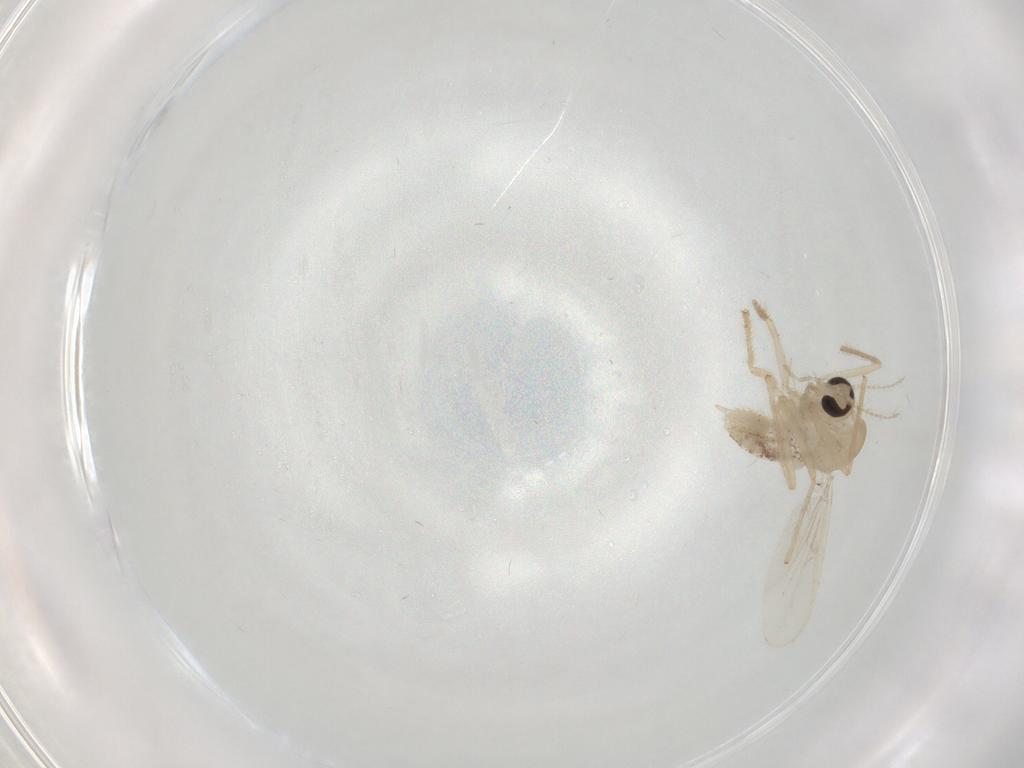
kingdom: Animalia
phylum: Arthropoda
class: Insecta
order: Diptera
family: Chironomidae
